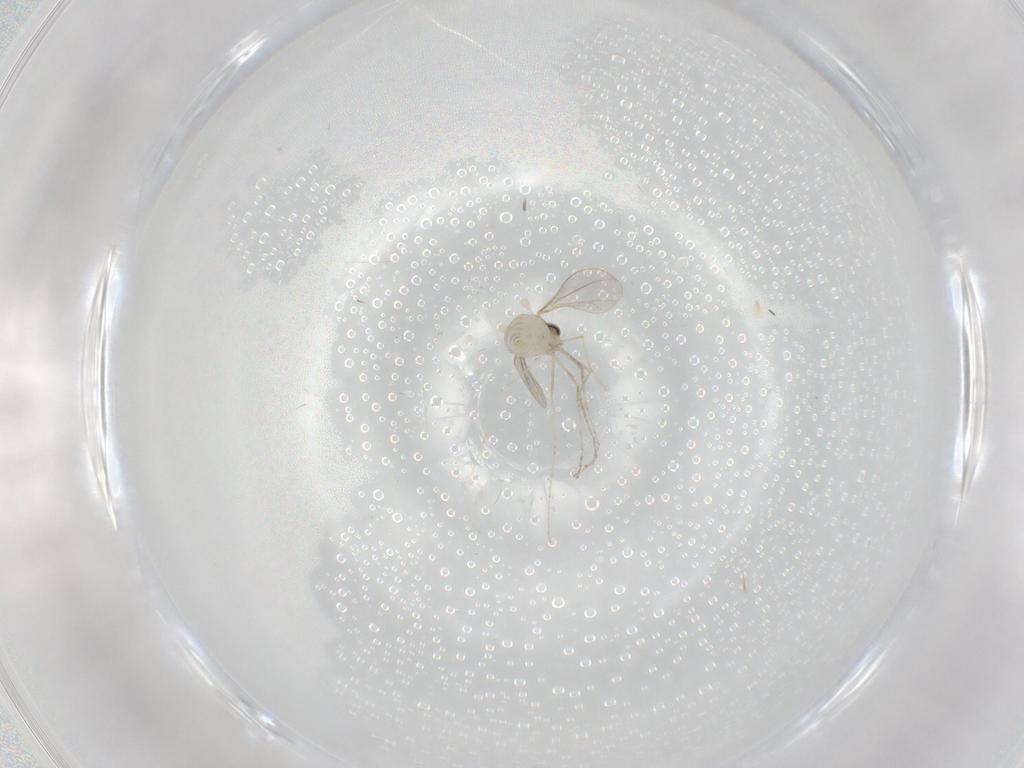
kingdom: Animalia
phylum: Arthropoda
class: Insecta
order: Diptera
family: Cecidomyiidae
